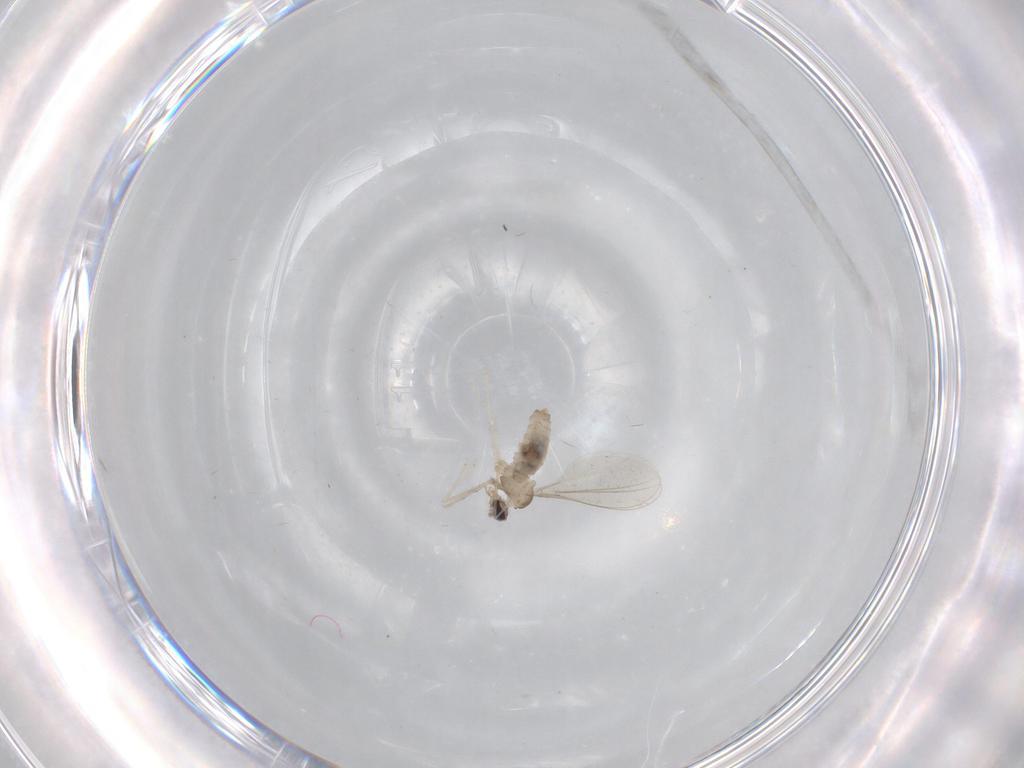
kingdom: Animalia
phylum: Arthropoda
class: Insecta
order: Diptera
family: Cecidomyiidae
